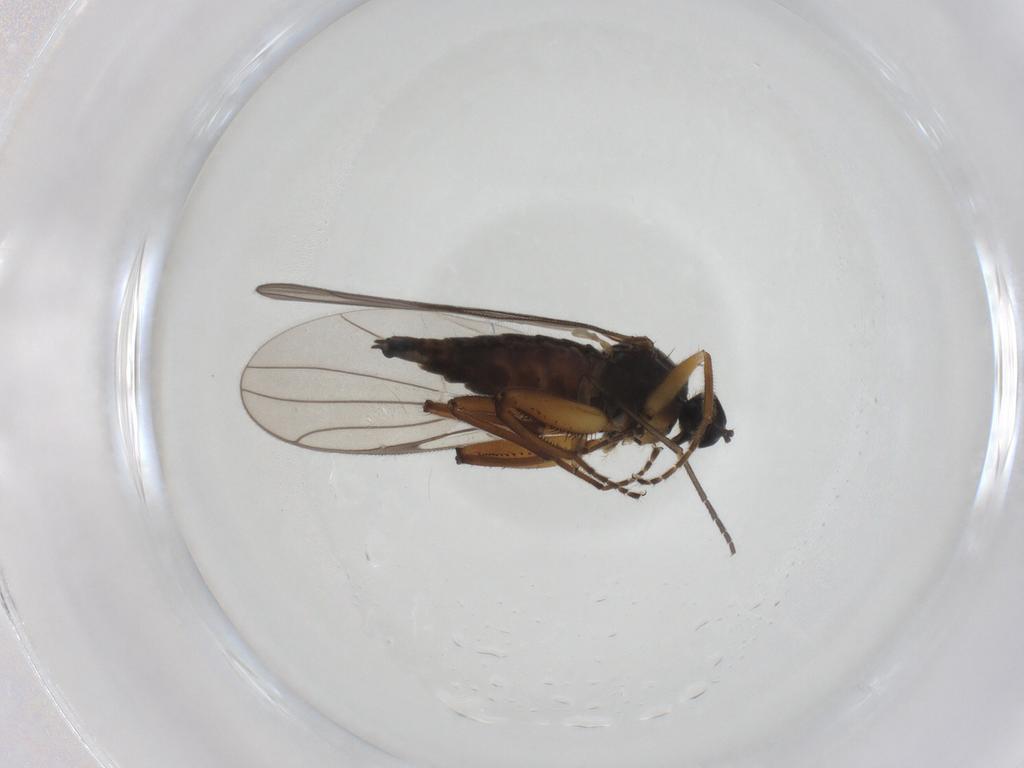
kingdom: Animalia
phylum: Arthropoda
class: Insecta
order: Diptera
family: Hybotidae
